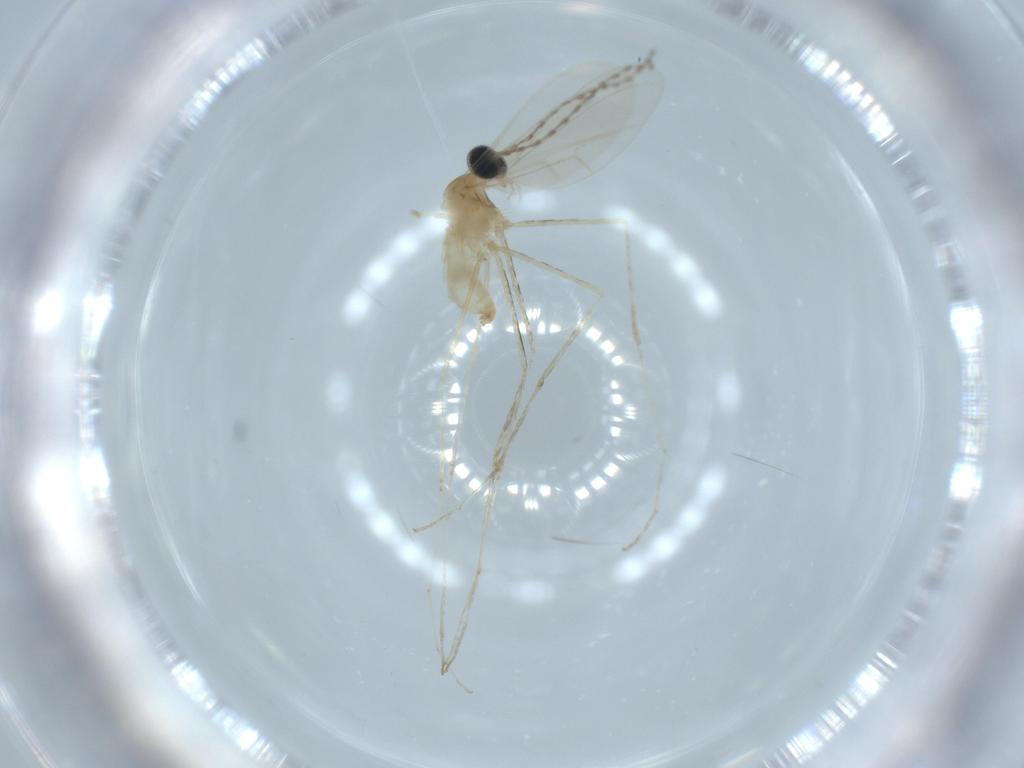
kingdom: Animalia
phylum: Arthropoda
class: Insecta
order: Diptera
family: Cecidomyiidae
